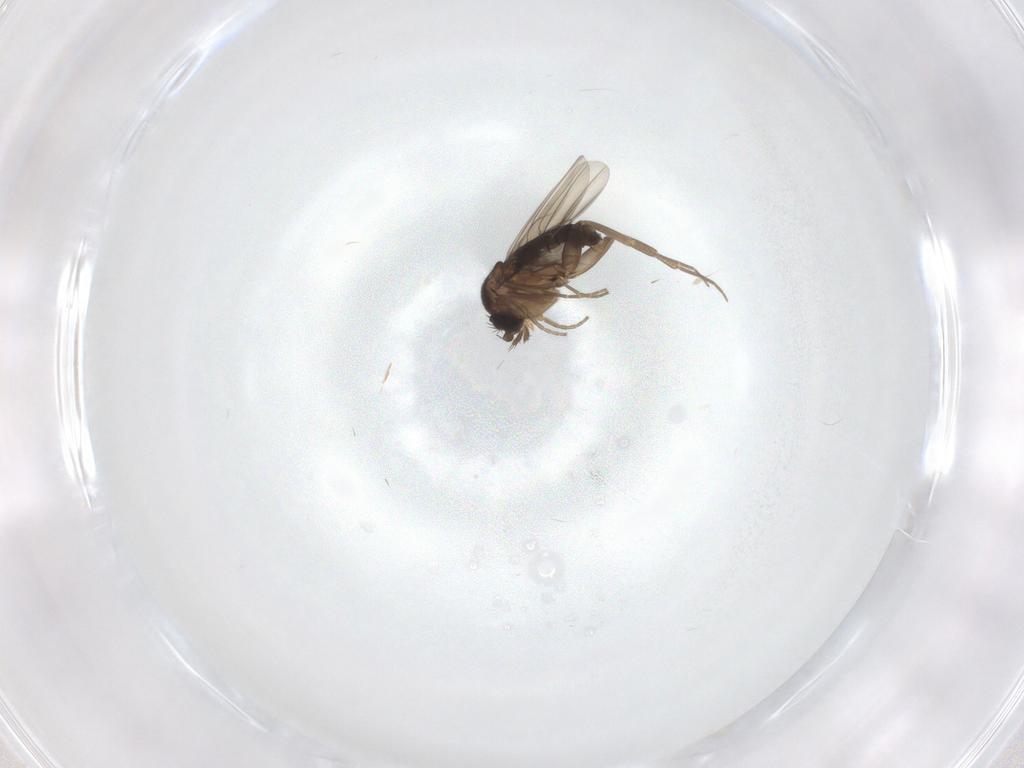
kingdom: Animalia
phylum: Arthropoda
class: Insecta
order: Diptera
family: Phoridae
